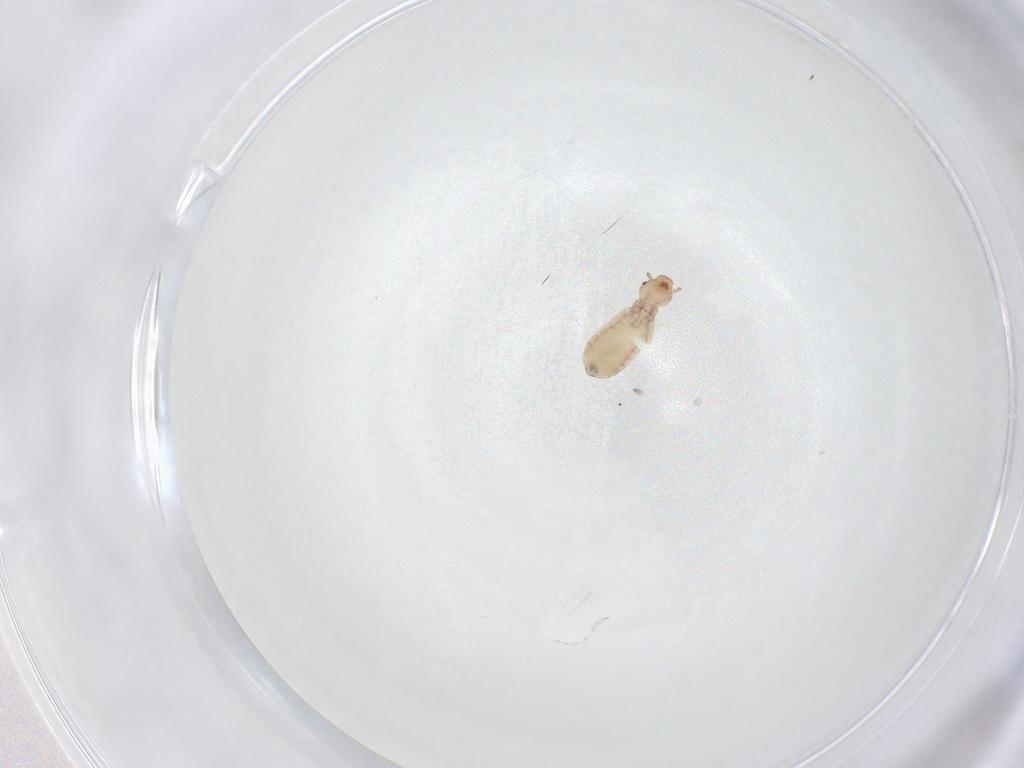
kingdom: Animalia
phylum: Arthropoda
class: Insecta
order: Psocodea
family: Liposcelididae
